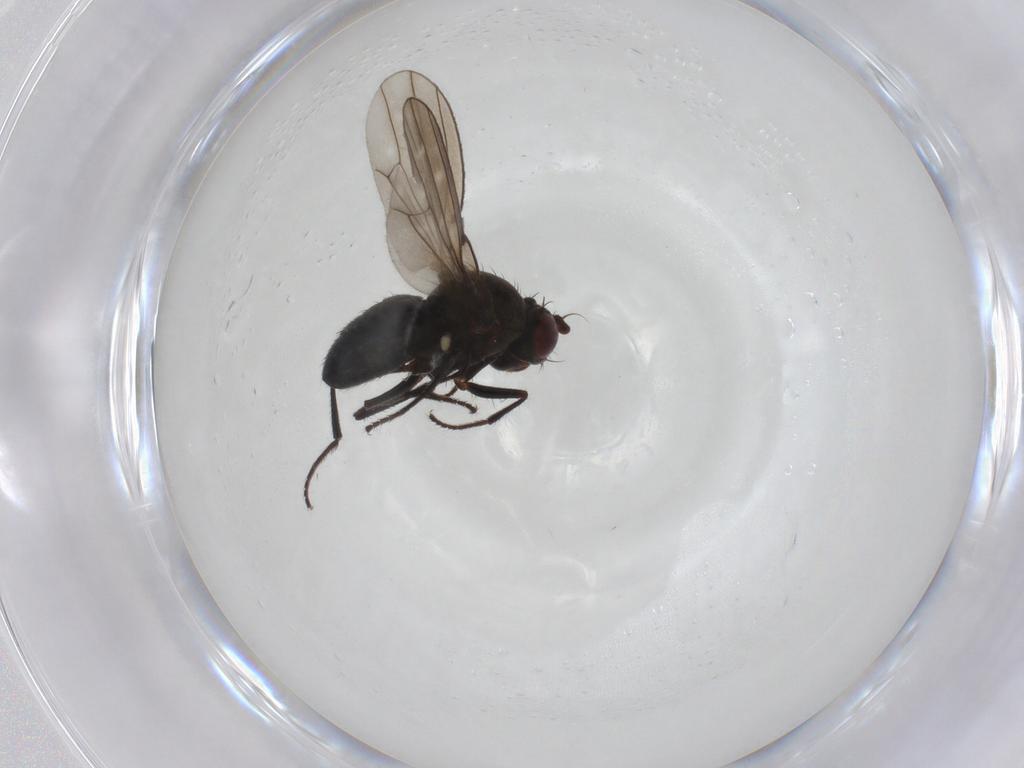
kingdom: Animalia
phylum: Arthropoda
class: Insecta
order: Diptera
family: Ephydridae
